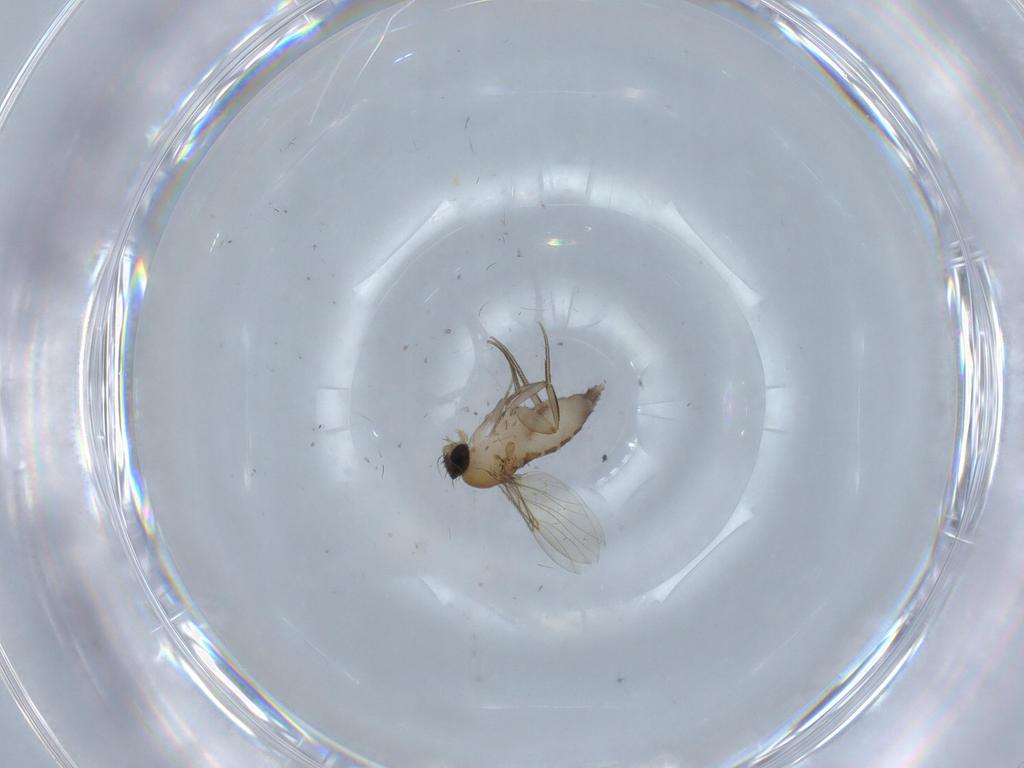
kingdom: Animalia
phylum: Arthropoda
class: Insecta
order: Diptera
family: Phoridae
